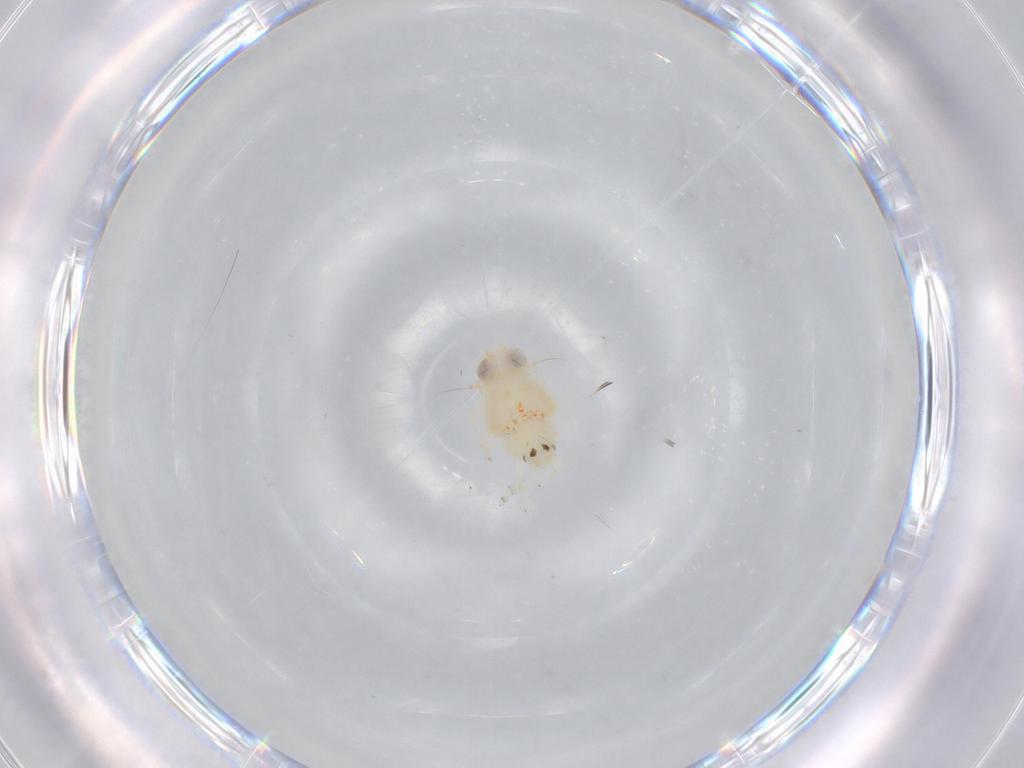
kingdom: Animalia
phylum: Arthropoda
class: Insecta
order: Hemiptera
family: Nogodinidae
